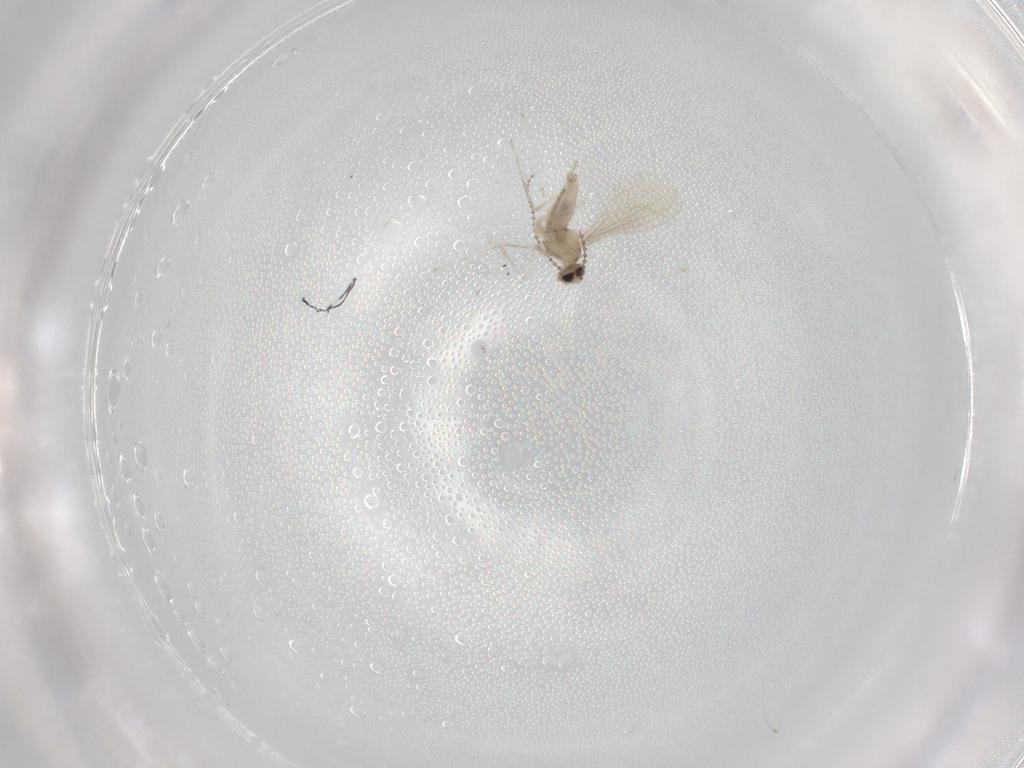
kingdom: Animalia
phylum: Arthropoda
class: Insecta
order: Diptera
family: Cecidomyiidae
